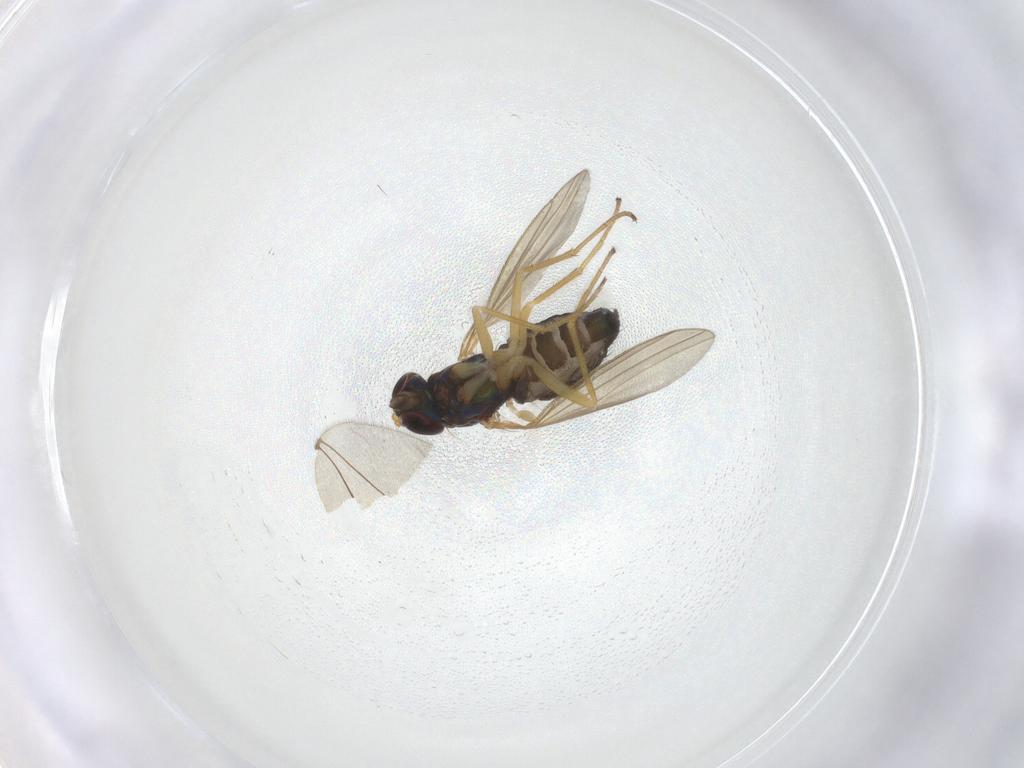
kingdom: Animalia
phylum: Arthropoda
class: Insecta
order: Diptera
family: Dolichopodidae
